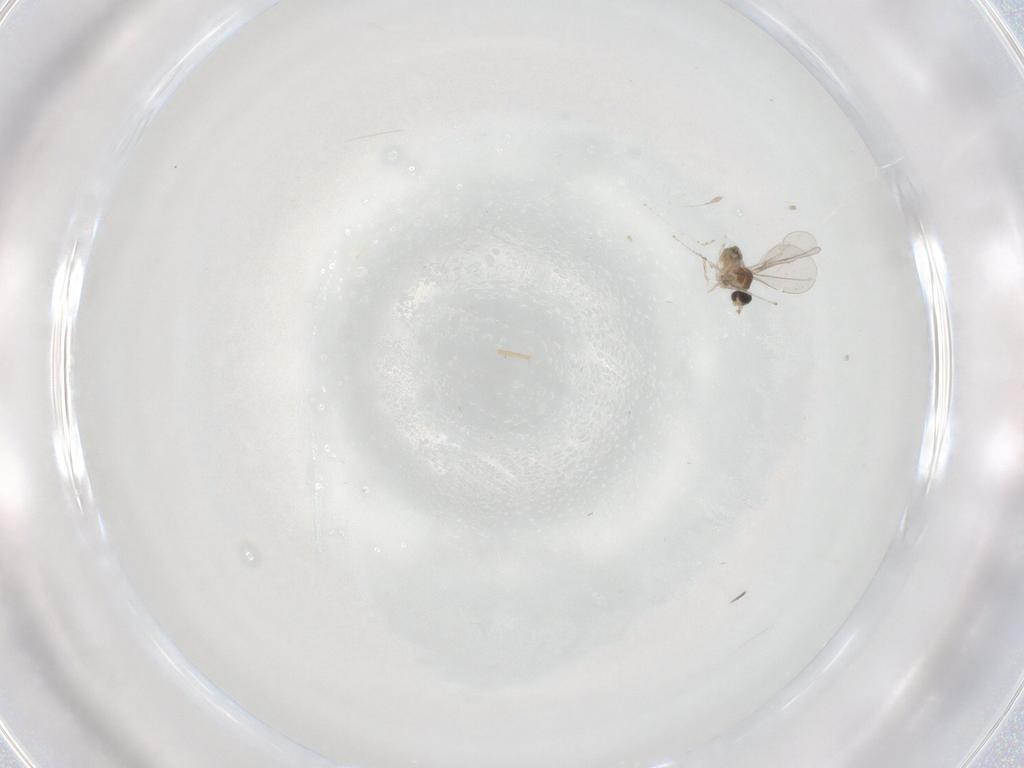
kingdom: Animalia
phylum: Arthropoda
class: Insecta
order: Diptera
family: Cecidomyiidae
